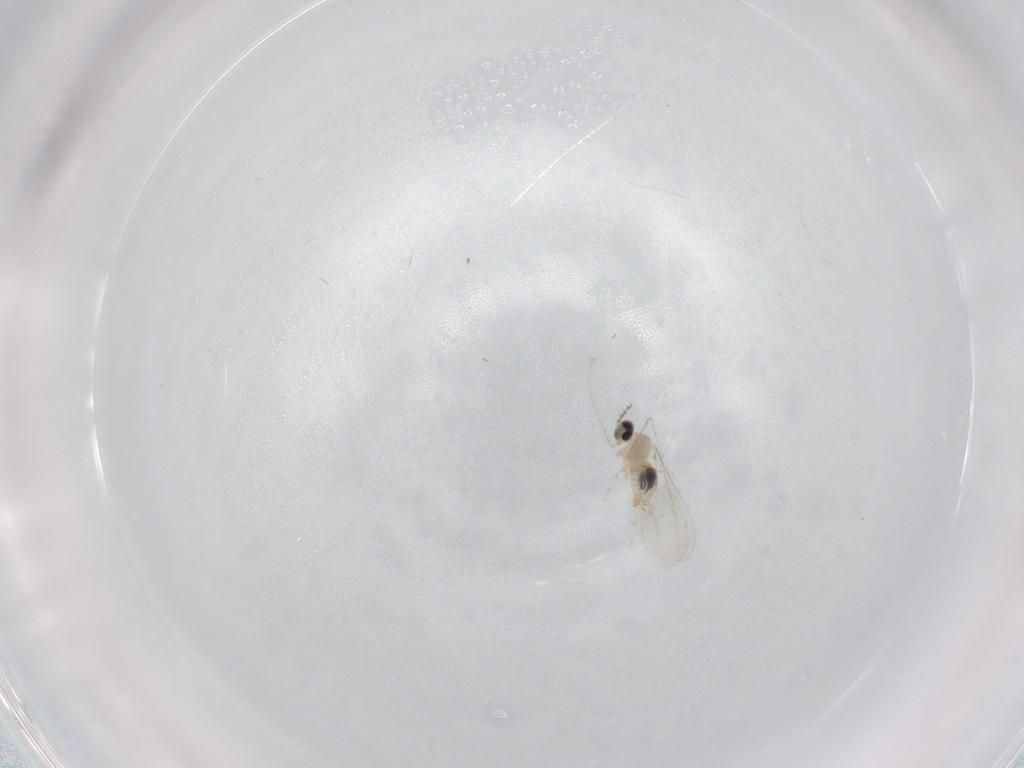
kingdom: Animalia
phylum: Arthropoda
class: Insecta
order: Diptera
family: Cecidomyiidae
